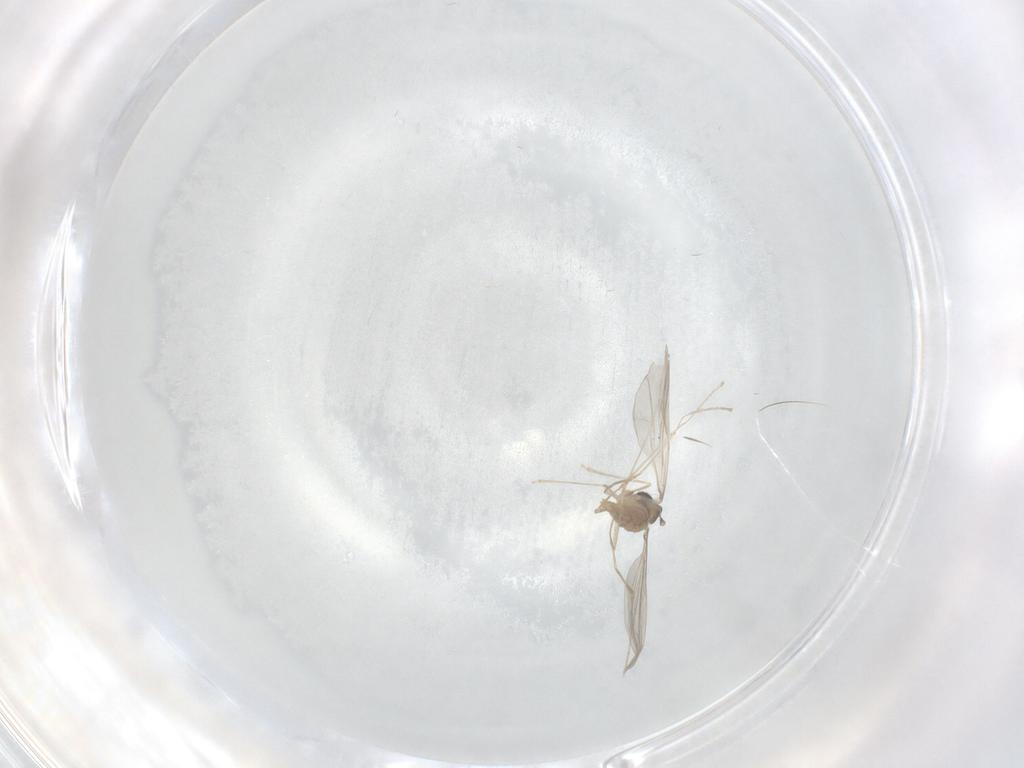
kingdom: Animalia
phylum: Arthropoda
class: Insecta
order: Diptera
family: Cecidomyiidae
